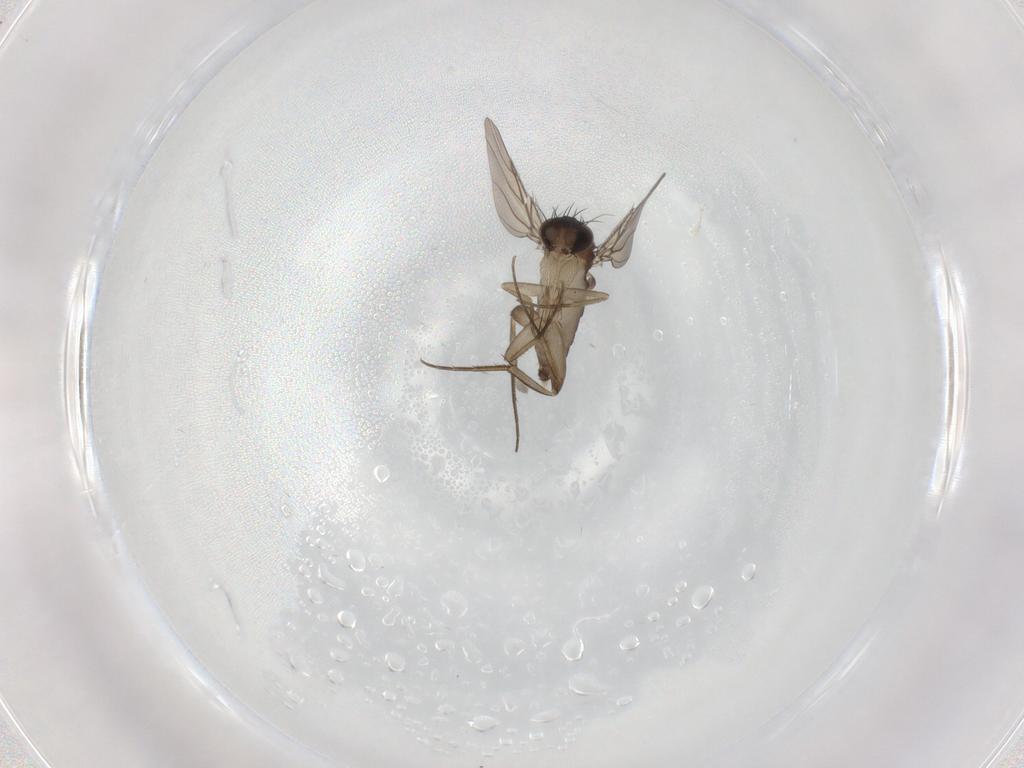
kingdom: Animalia
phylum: Arthropoda
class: Insecta
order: Diptera
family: Phoridae
